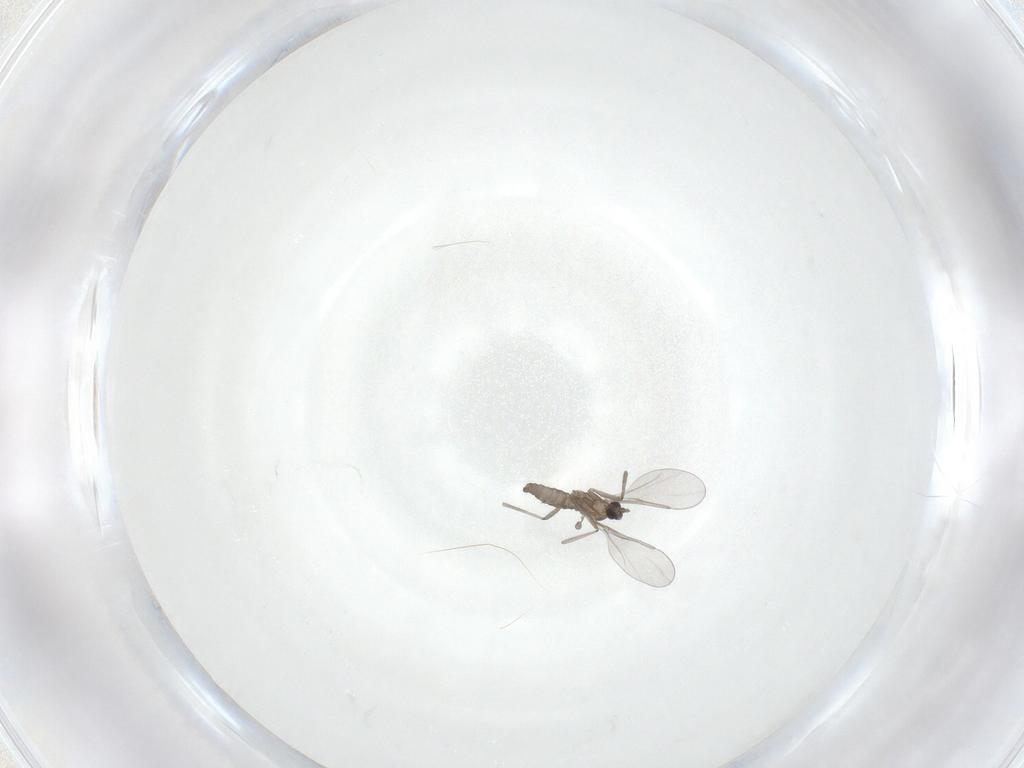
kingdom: Animalia
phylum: Arthropoda
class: Insecta
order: Diptera
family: Cecidomyiidae
